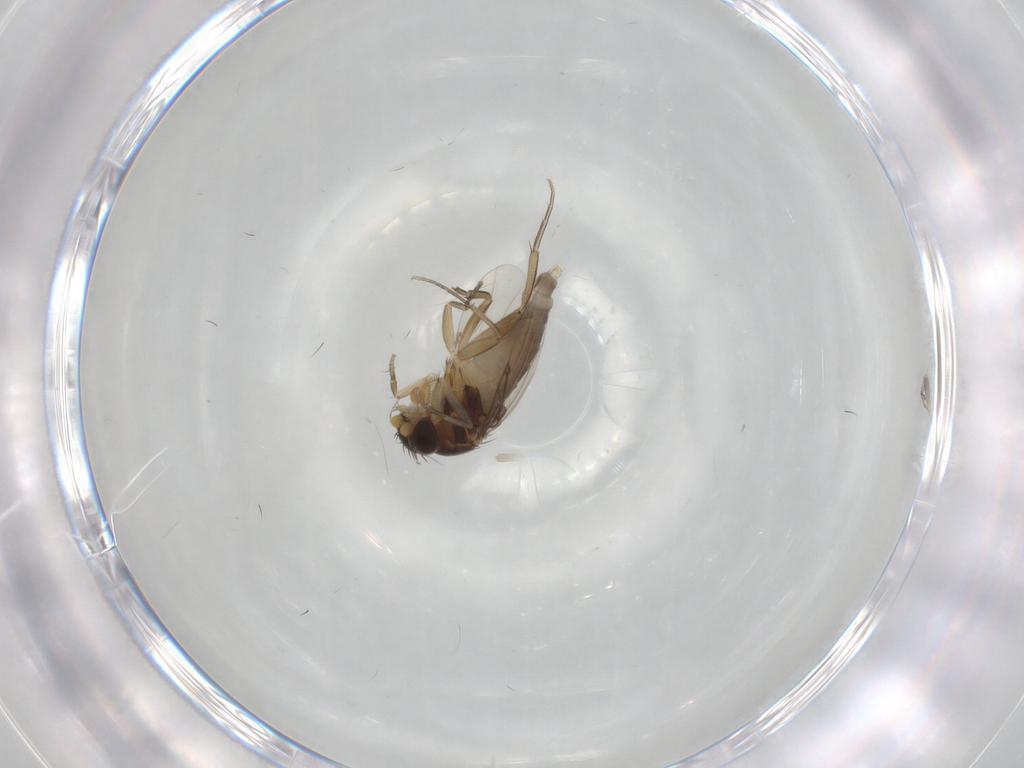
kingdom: Animalia
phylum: Arthropoda
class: Insecta
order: Diptera
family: Phoridae
